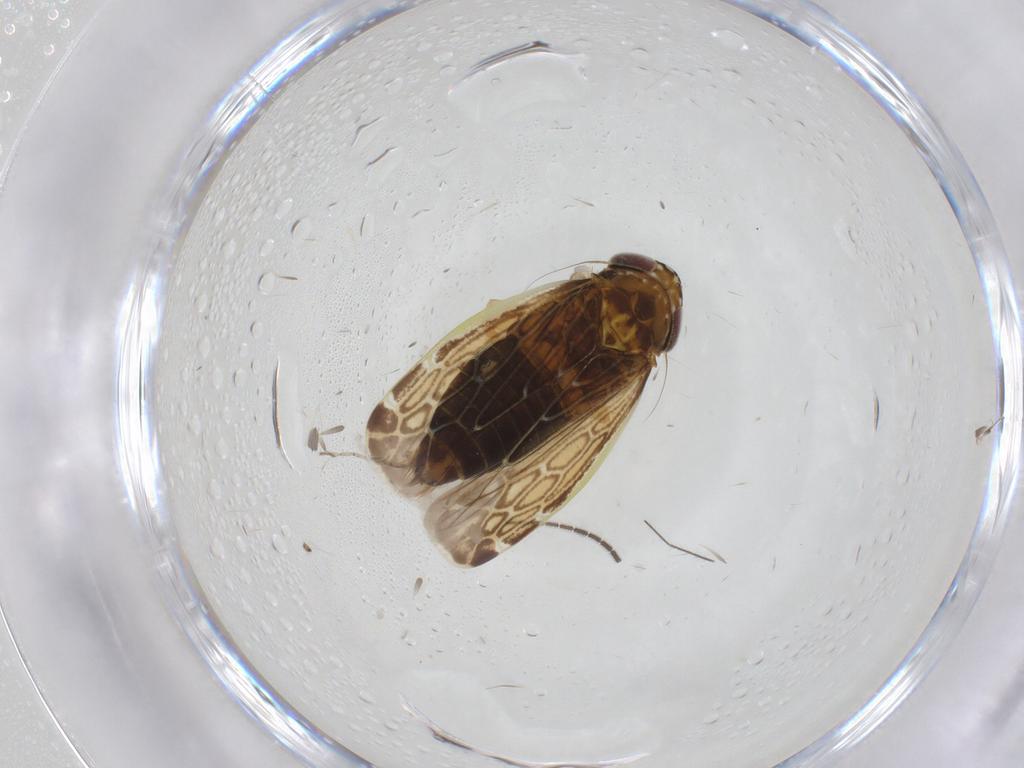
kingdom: Animalia
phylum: Arthropoda
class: Insecta
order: Hemiptera
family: Cicadellidae
